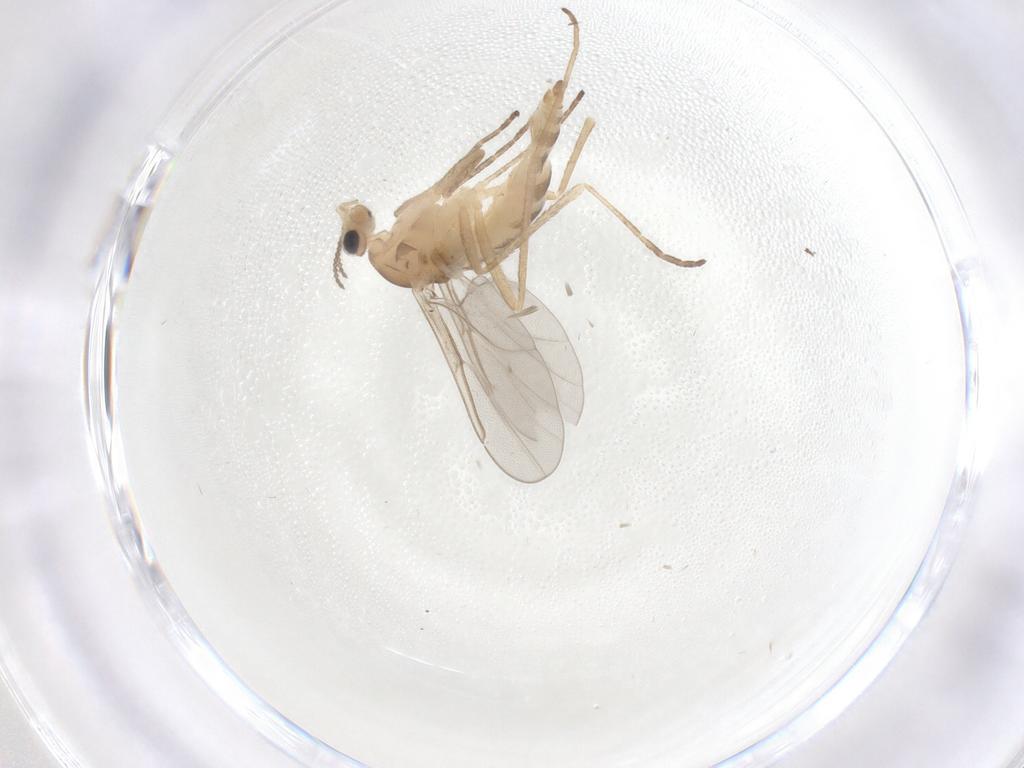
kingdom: Animalia
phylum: Arthropoda
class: Insecta
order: Diptera
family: Cecidomyiidae
